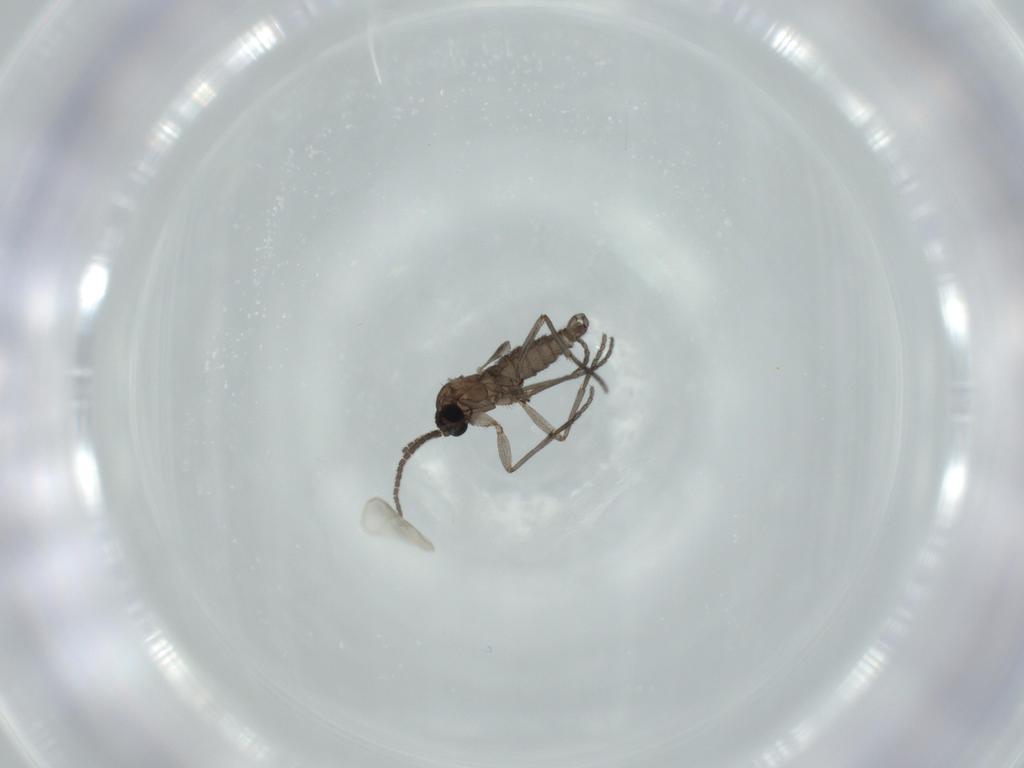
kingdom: Animalia
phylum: Arthropoda
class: Insecta
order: Diptera
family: Sciaridae
